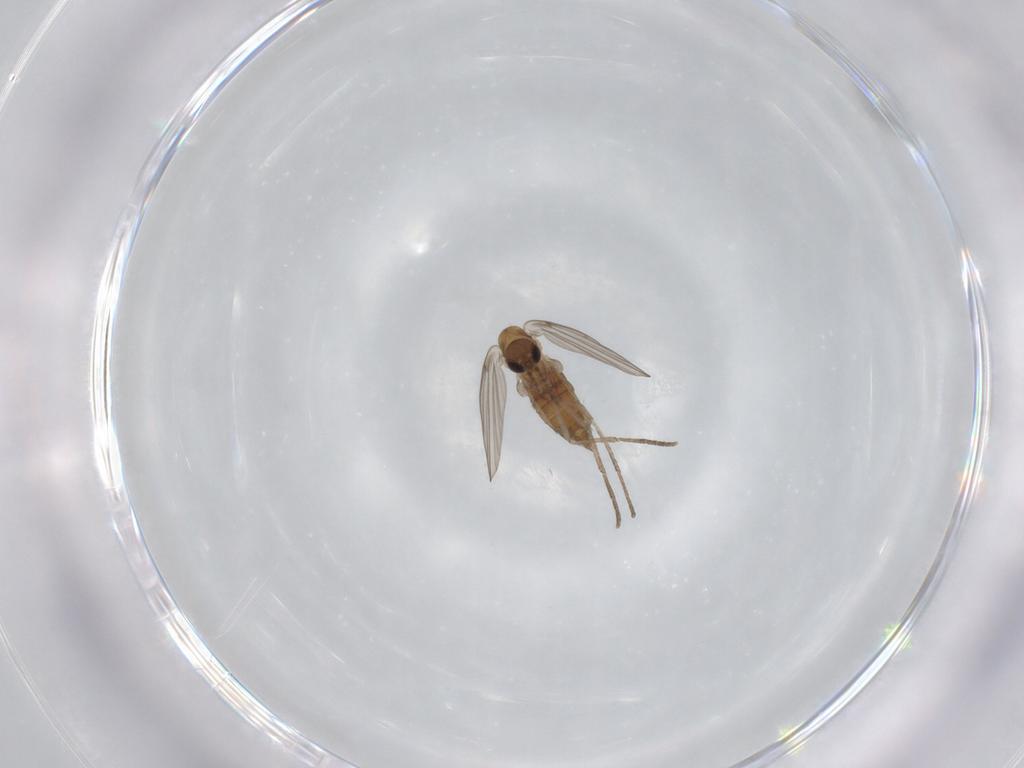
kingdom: Animalia
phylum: Arthropoda
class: Insecta
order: Diptera
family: Psychodidae
